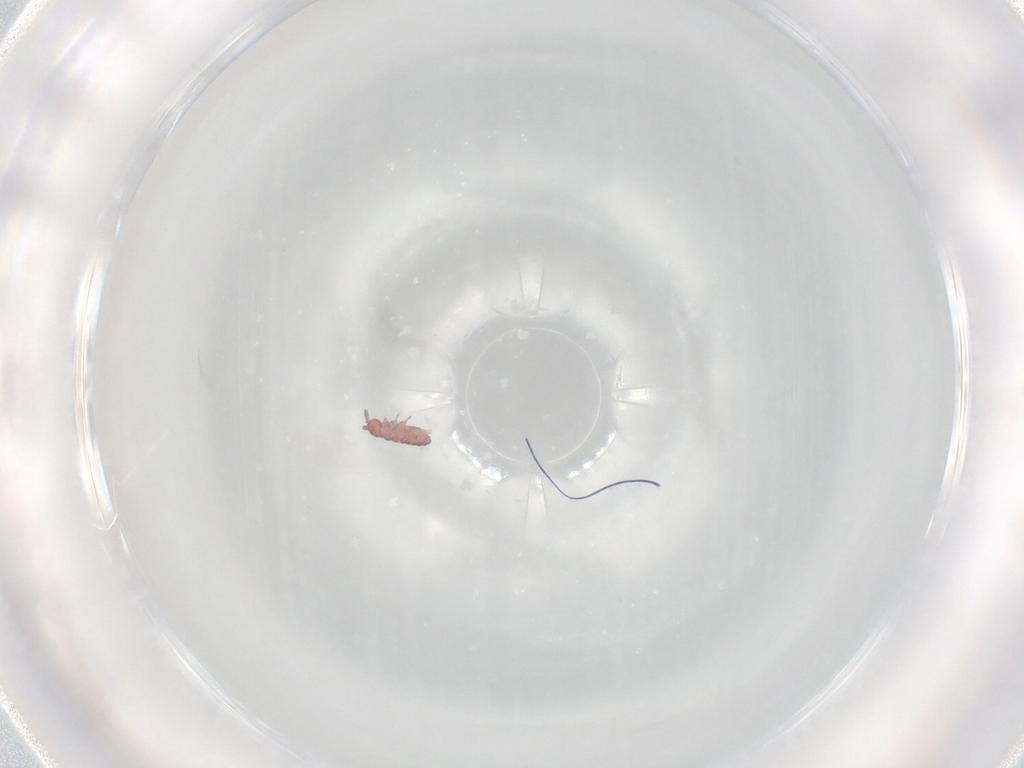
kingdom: Animalia
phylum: Arthropoda
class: Collembola
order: Poduromorpha
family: Hypogastruridae
